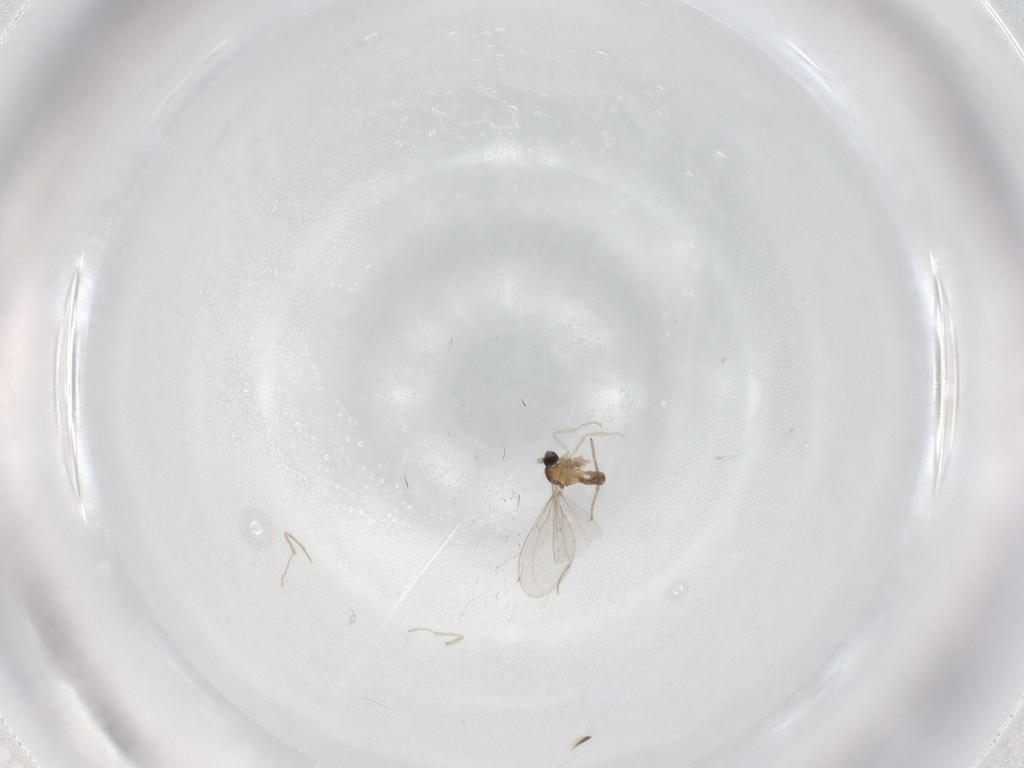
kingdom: Animalia
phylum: Arthropoda
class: Insecta
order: Diptera
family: Cecidomyiidae
